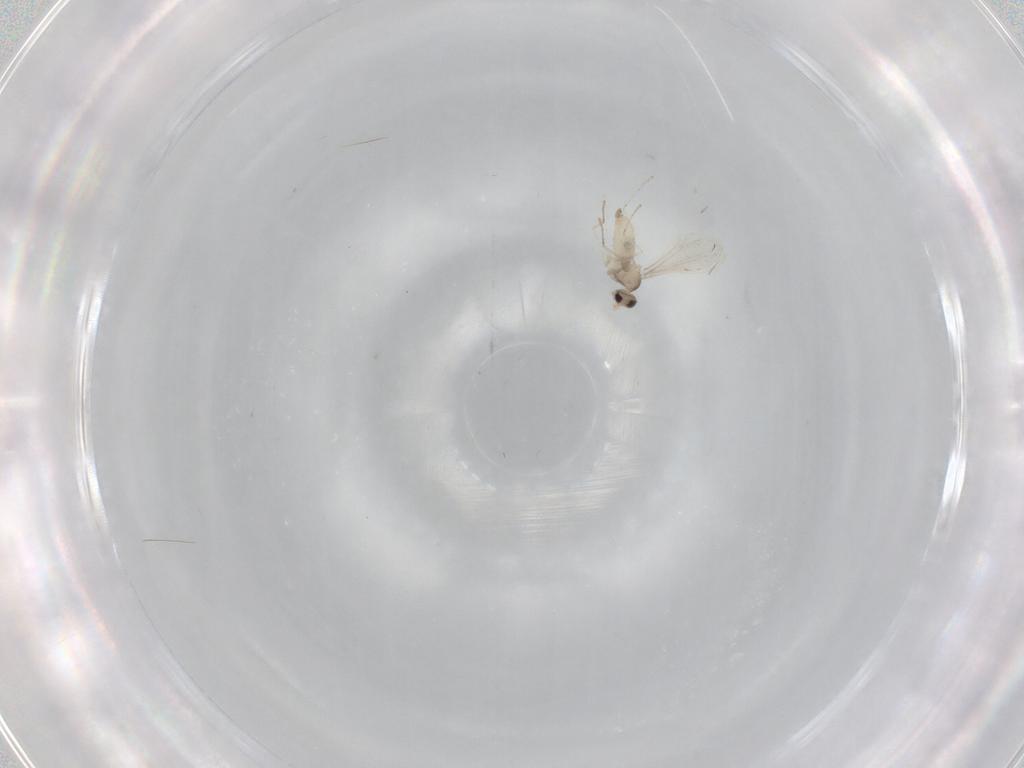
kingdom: Animalia
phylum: Arthropoda
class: Insecta
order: Diptera
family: Cecidomyiidae
